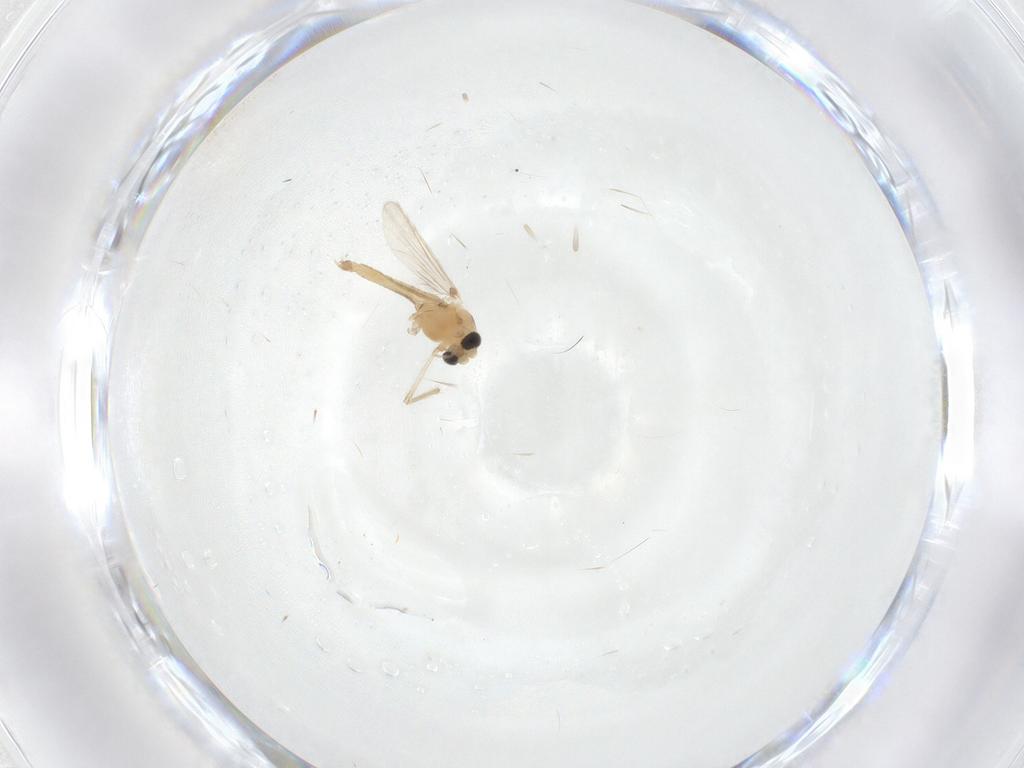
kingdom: Animalia
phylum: Arthropoda
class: Insecta
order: Diptera
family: Chironomidae
